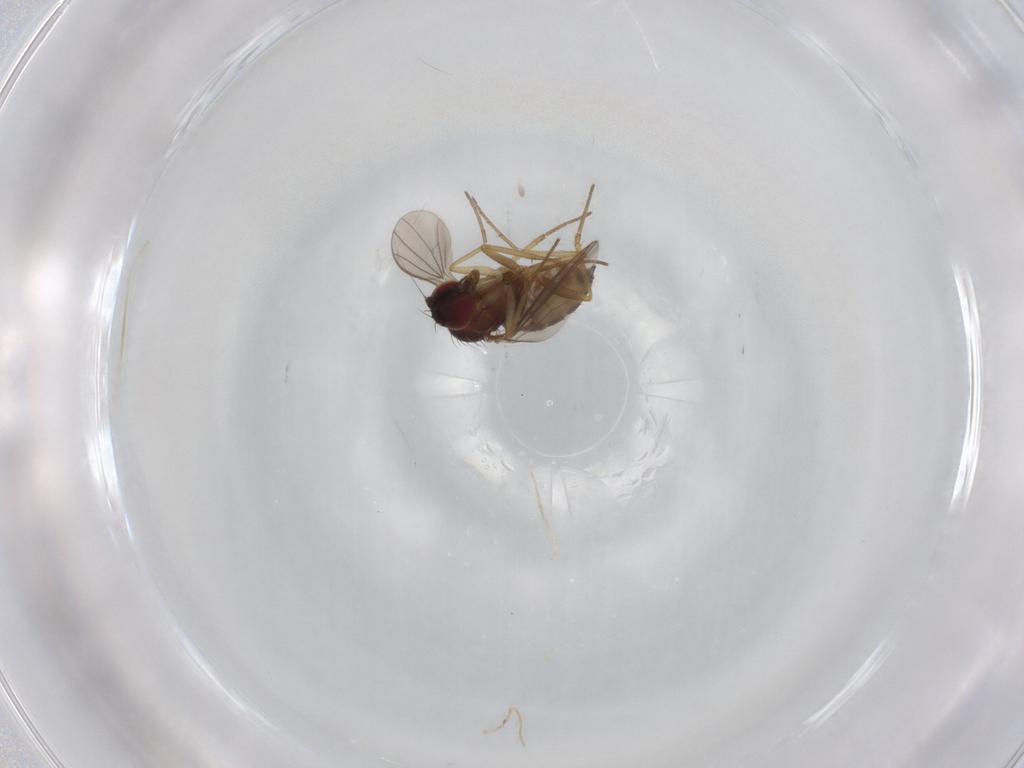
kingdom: Animalia
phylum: Arthropoda
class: Insecta
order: Diptera
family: Dolichopodidae
